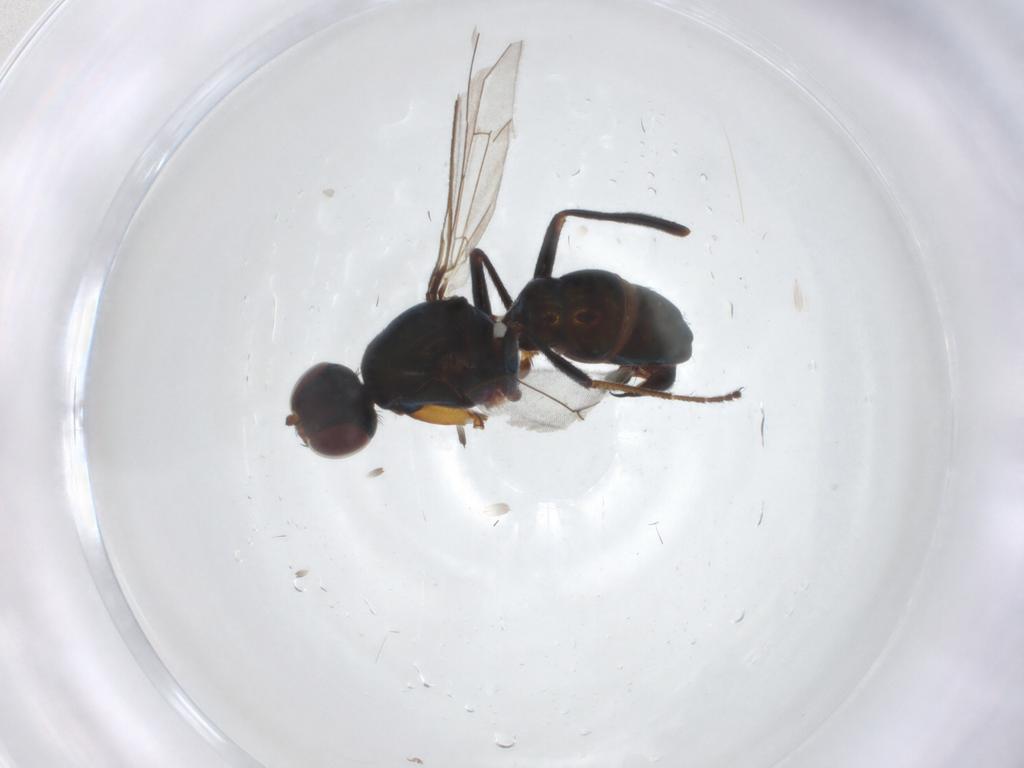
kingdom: Animalia
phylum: Arthropoda
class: Insecta
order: Diptera
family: Sepsidae
